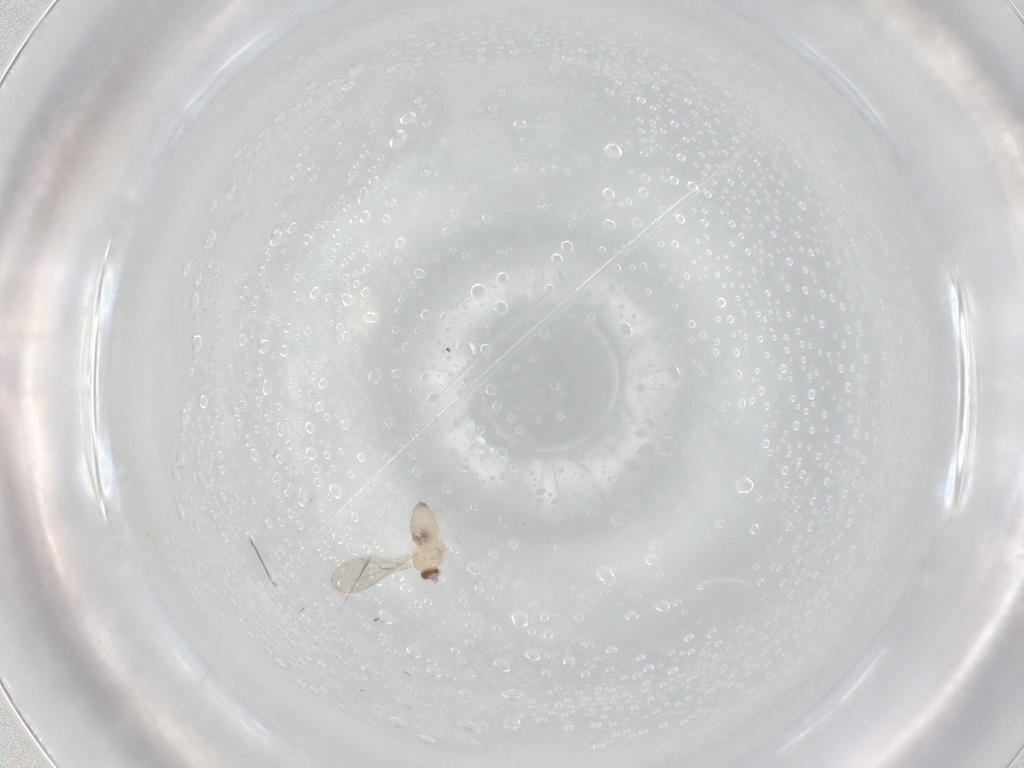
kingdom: Animalia
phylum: Arthropoda
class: Insecta
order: Diptera
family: Cecidomyiidae
